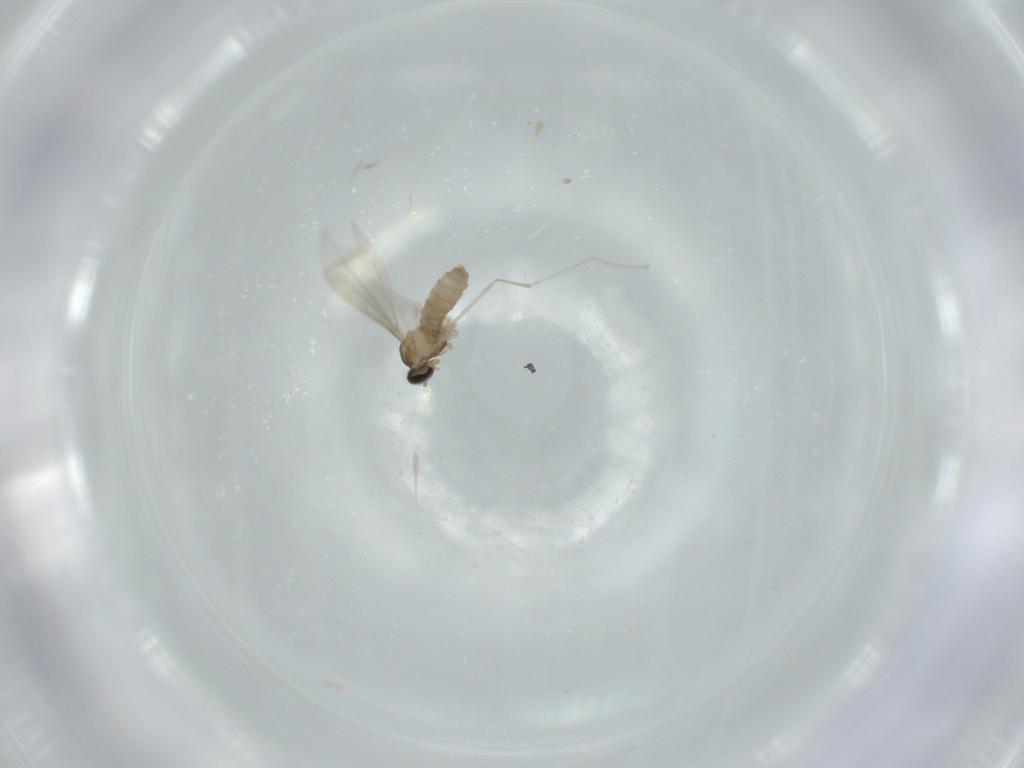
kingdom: Animalia
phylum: Arthropoda
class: Insecta
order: Diptera
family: Cecidomyiidae
